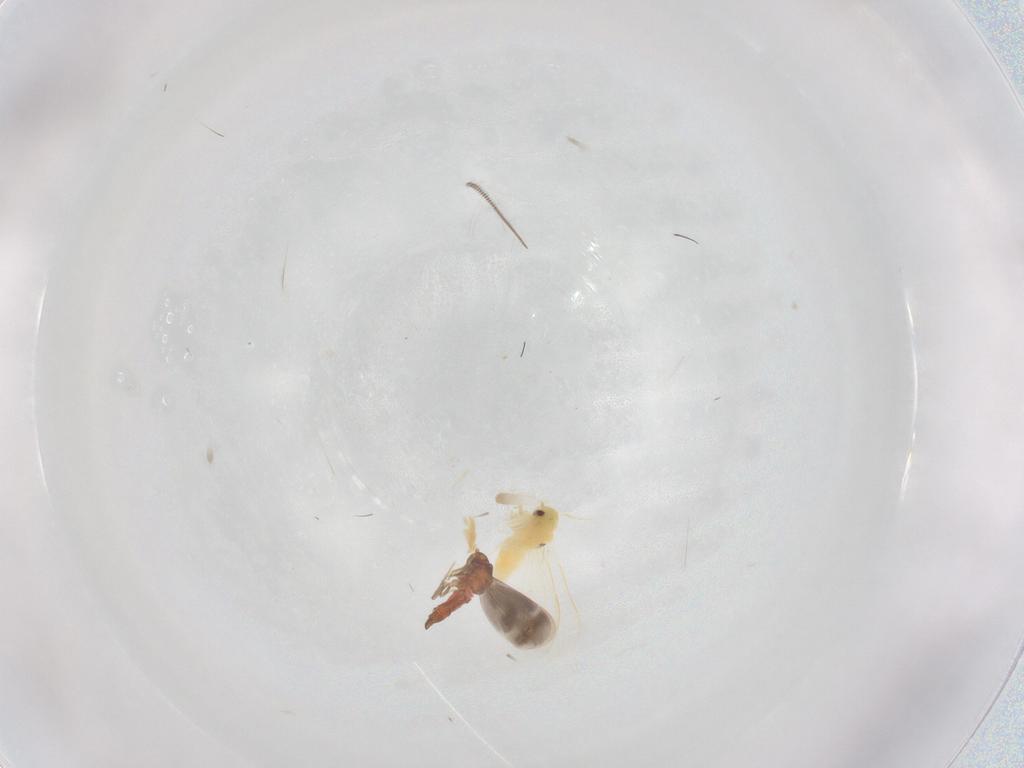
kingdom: Animalia
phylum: Arthropoda
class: Insecta
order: Hemiptera
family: Aleyrodidae
